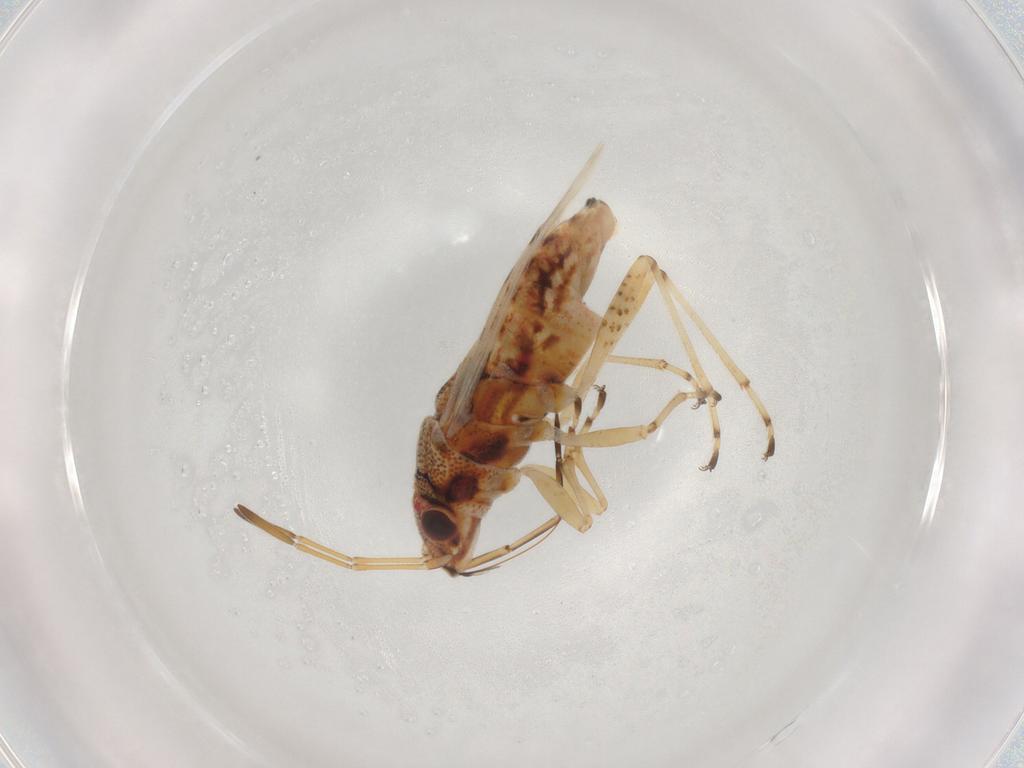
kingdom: Animalia
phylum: Arthropoda
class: Insecta
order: Hemiptera
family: Lygaeidae
